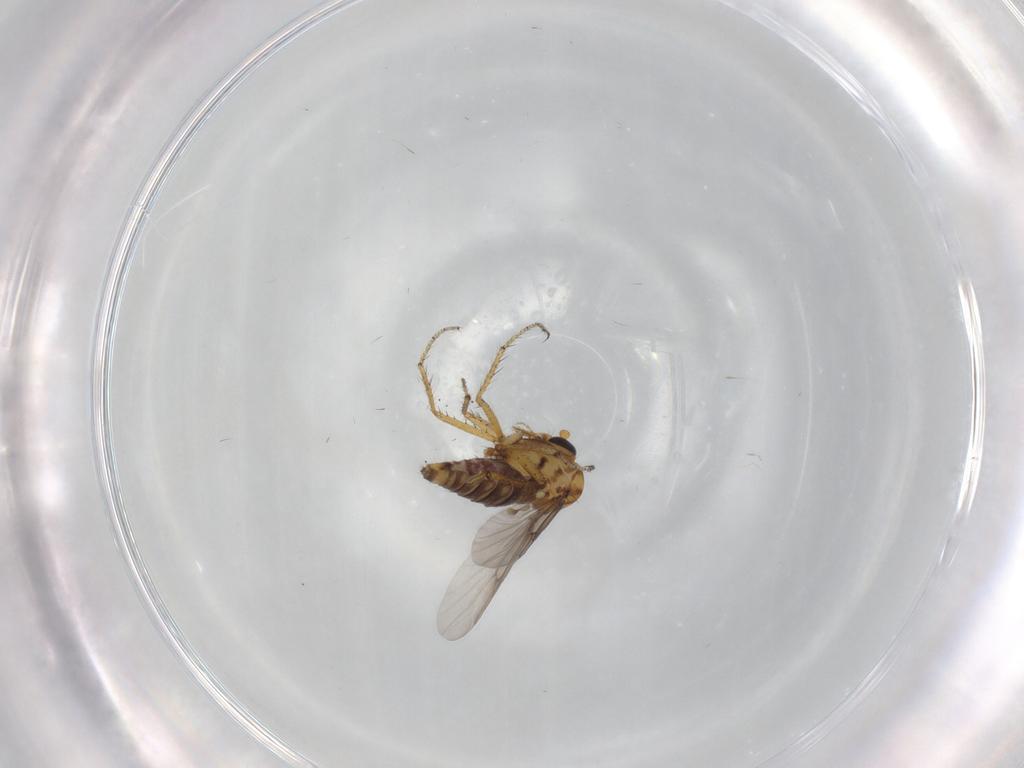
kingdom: Animalia
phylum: Arthropoda
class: Insecta
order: Diptera
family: Ceratopogonidae
